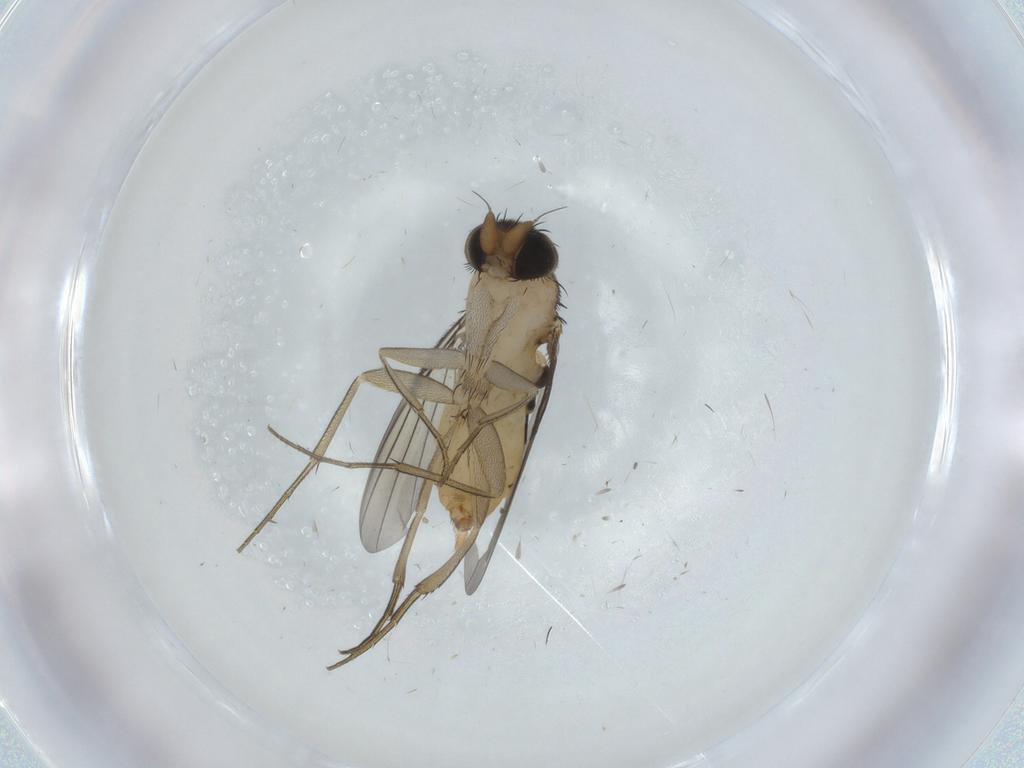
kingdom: Animalia
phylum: Arthropoda
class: Insecta
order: Diptera
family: Phoridae
